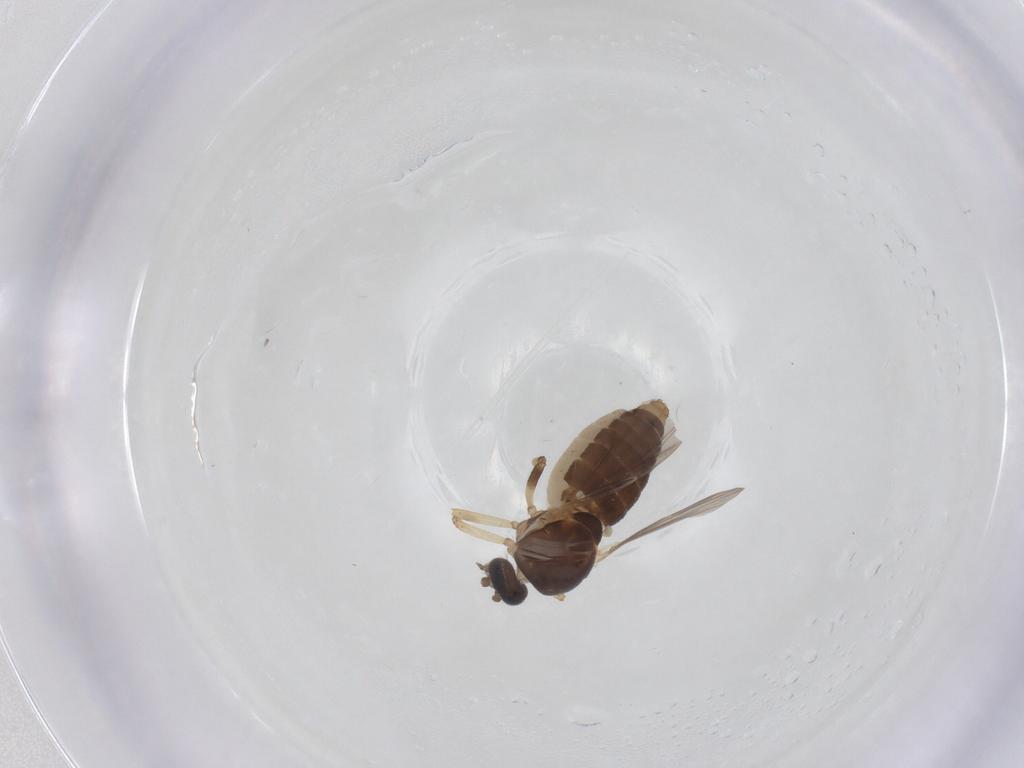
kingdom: Animalia
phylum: Arthropoda
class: Insecta
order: Diptera
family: Ceratopogonidae
